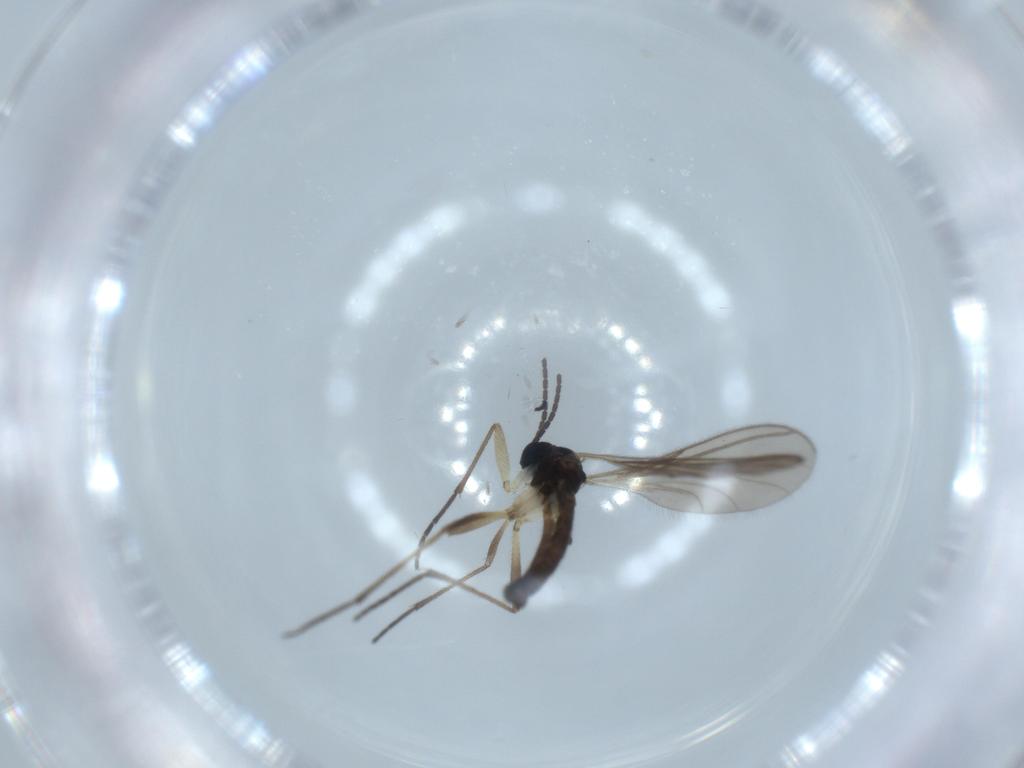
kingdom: Animalia
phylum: Arthropoda
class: Insecta
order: Diptera
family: Sciaridae
